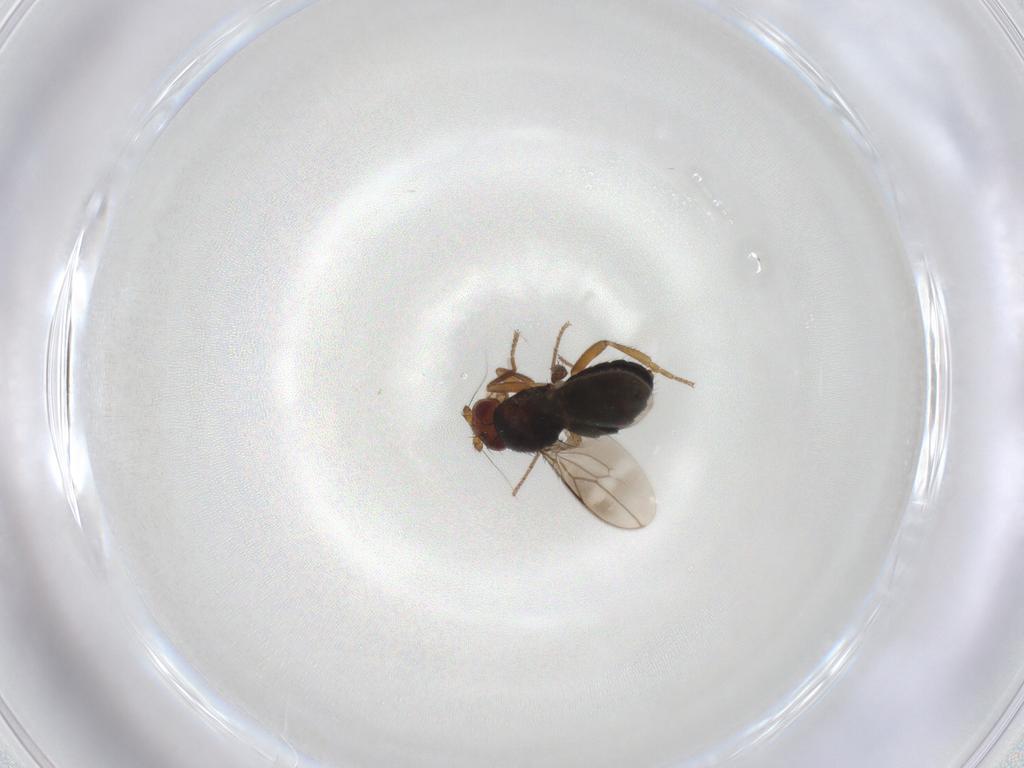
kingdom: Animalia
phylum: Arthropoda
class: Insecta
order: Diptera
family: Sphaeroceridae
